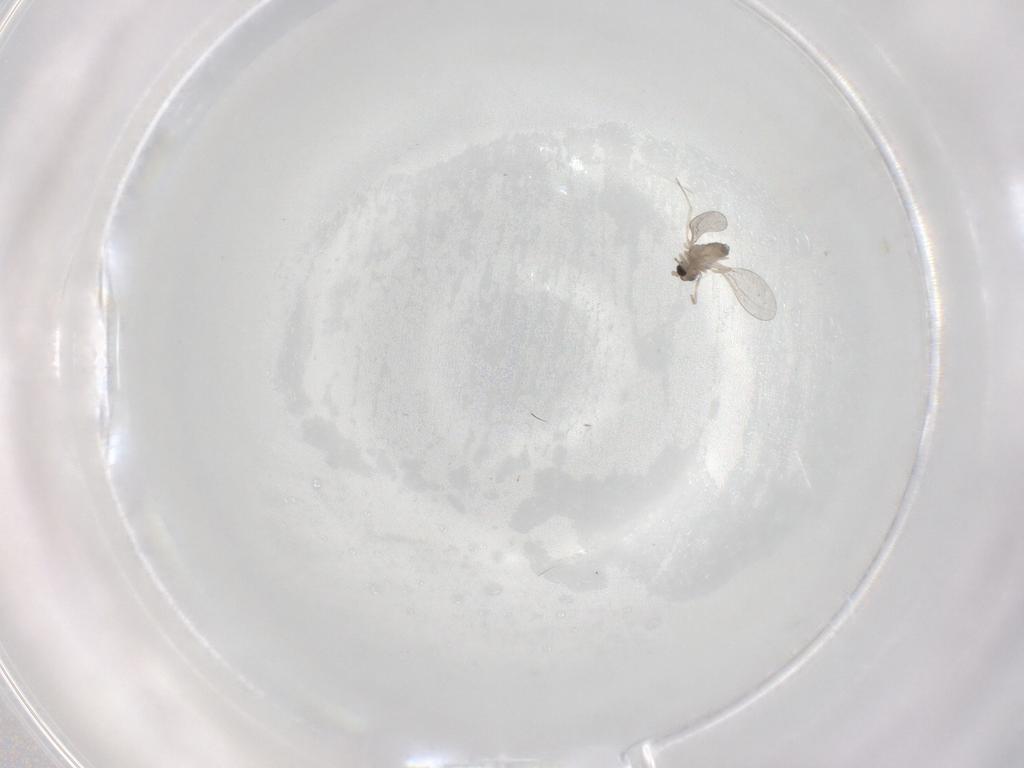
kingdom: Animalia
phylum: Arthropoda
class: Insecta
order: Diptera
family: Cecidomyiidae
